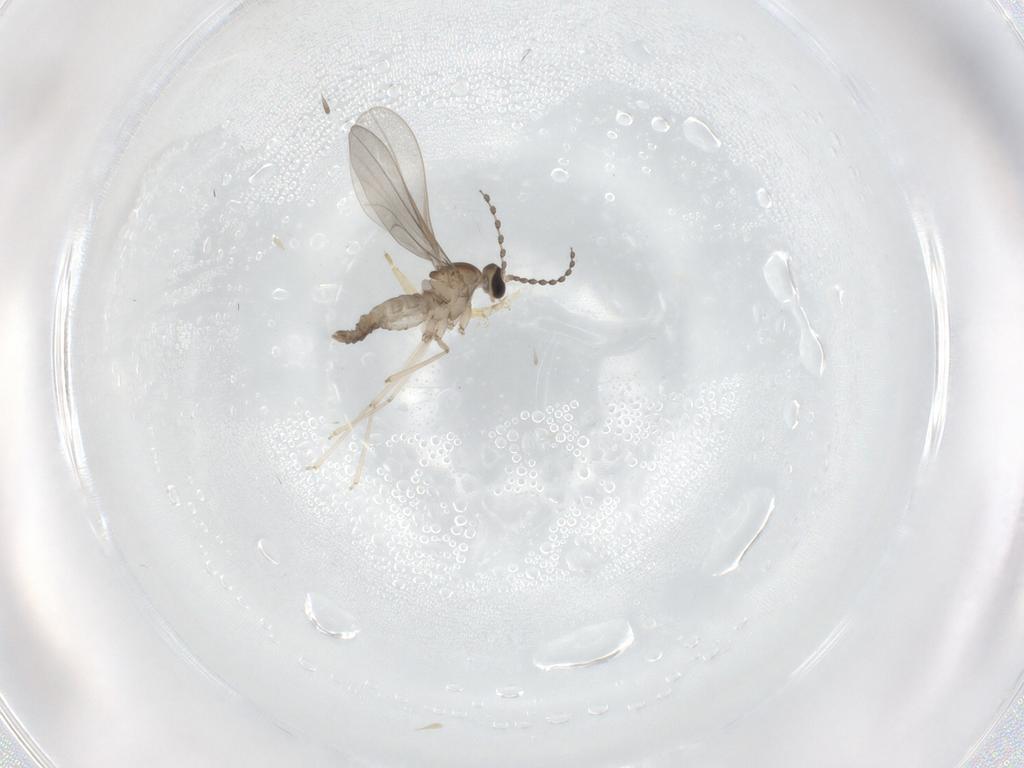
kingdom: Animalia
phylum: Arthropoda
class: Insecta
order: Diptera
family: Cecidomyiidae
